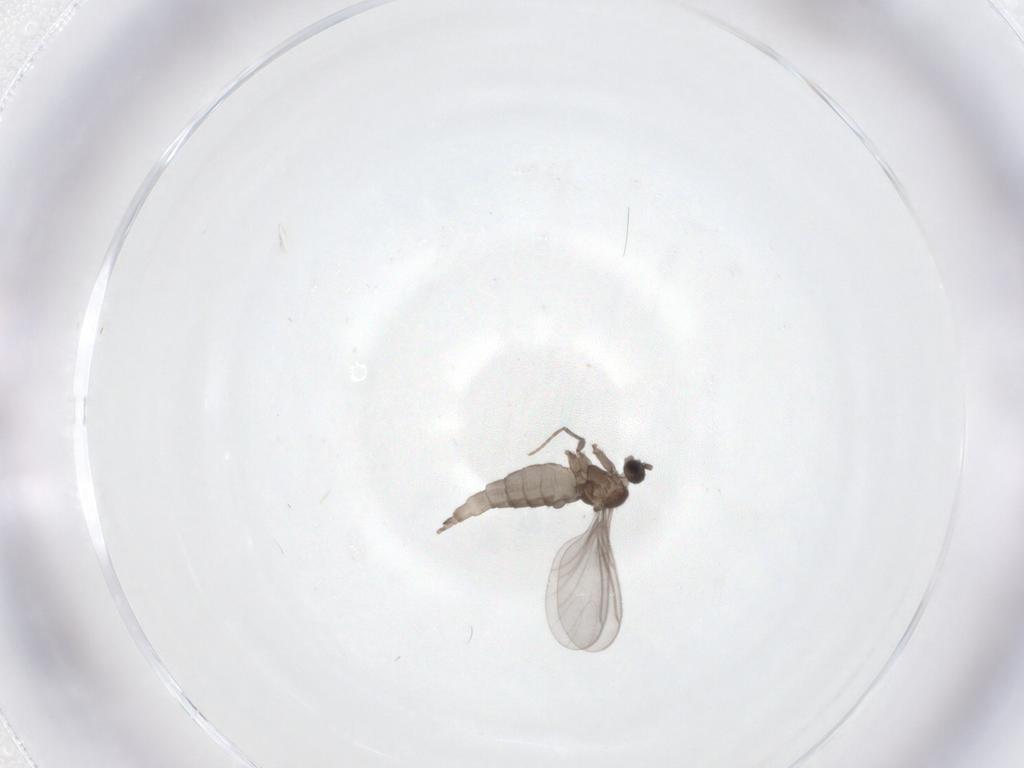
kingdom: Animalia
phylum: Arthropoda
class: Insecta
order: Diptera
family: Sciaridae
